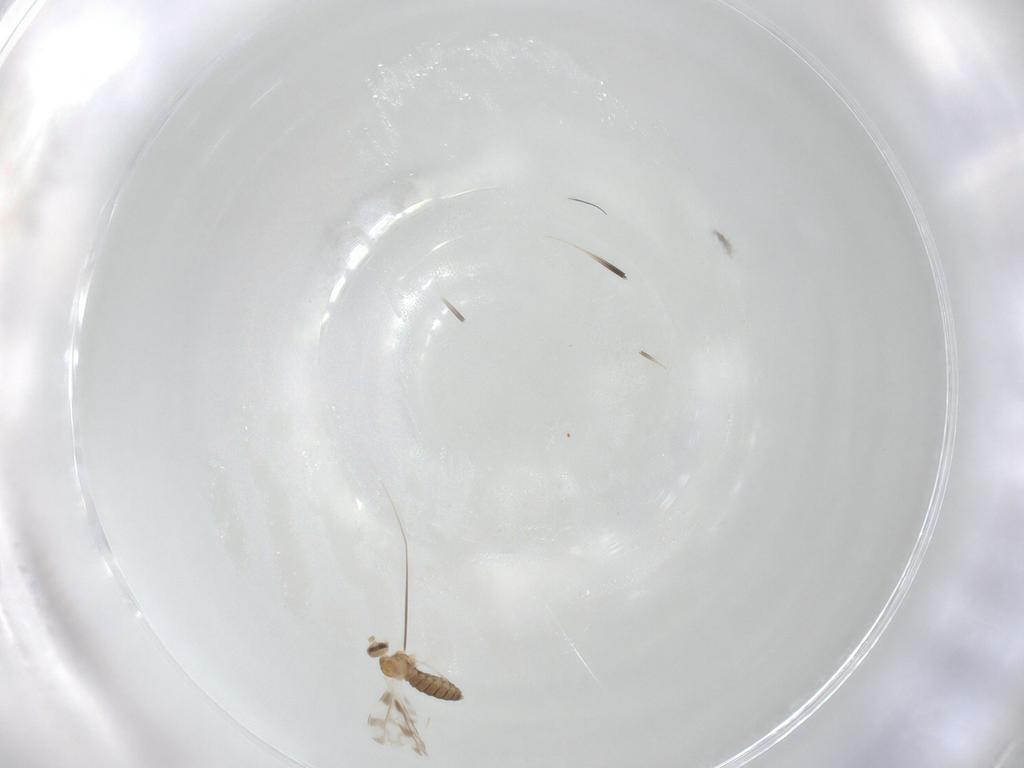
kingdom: Animalia
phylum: Arthropoda
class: Insecta
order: Diptera
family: Cecidomyiidae
